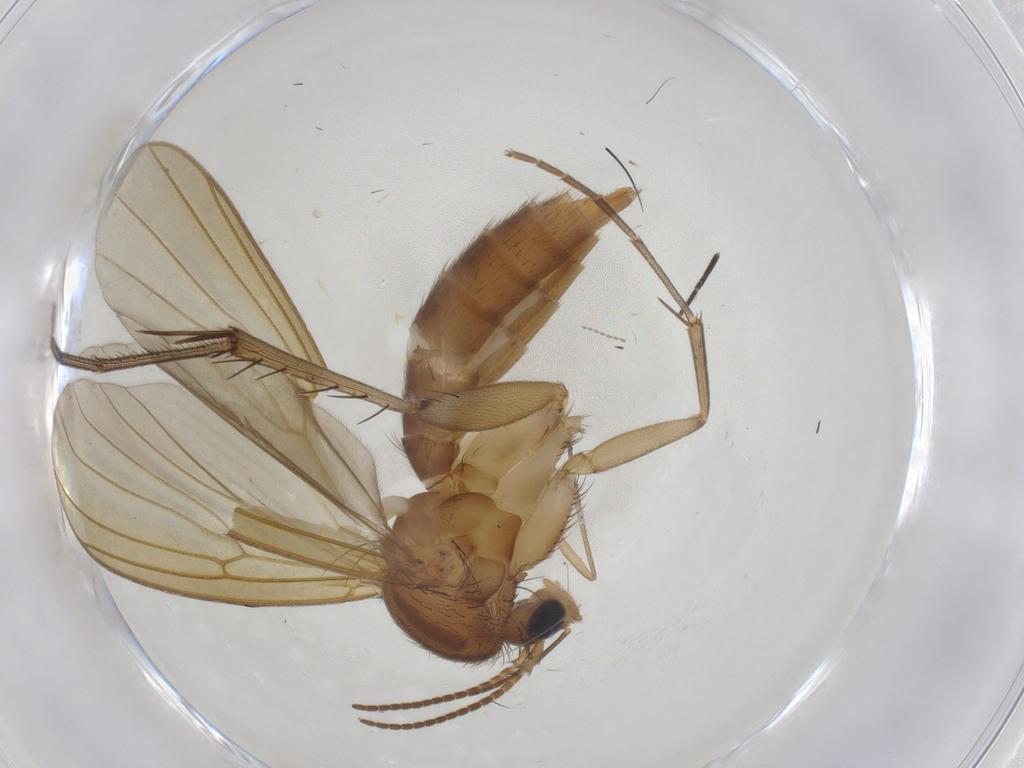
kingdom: Animalia
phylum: Arthropoda
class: Insecta
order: Diptera
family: Mycetophilidae
